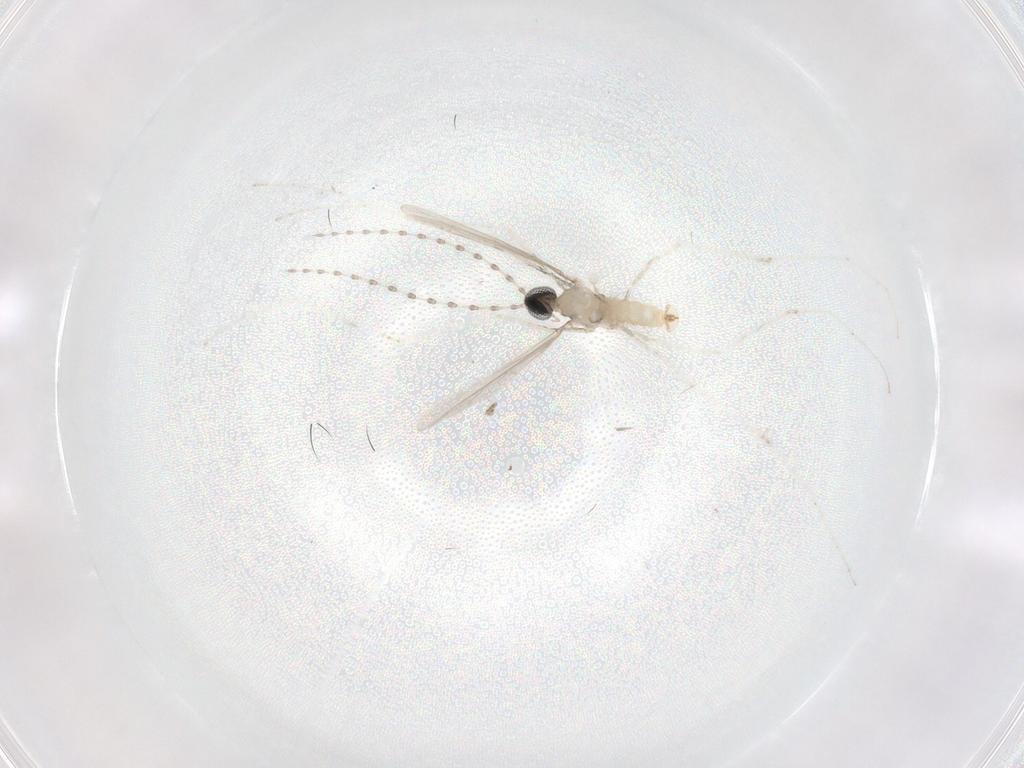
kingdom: Animalia
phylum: Arthropoda
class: Insecta
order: Diptera
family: Cecidomyiidae
